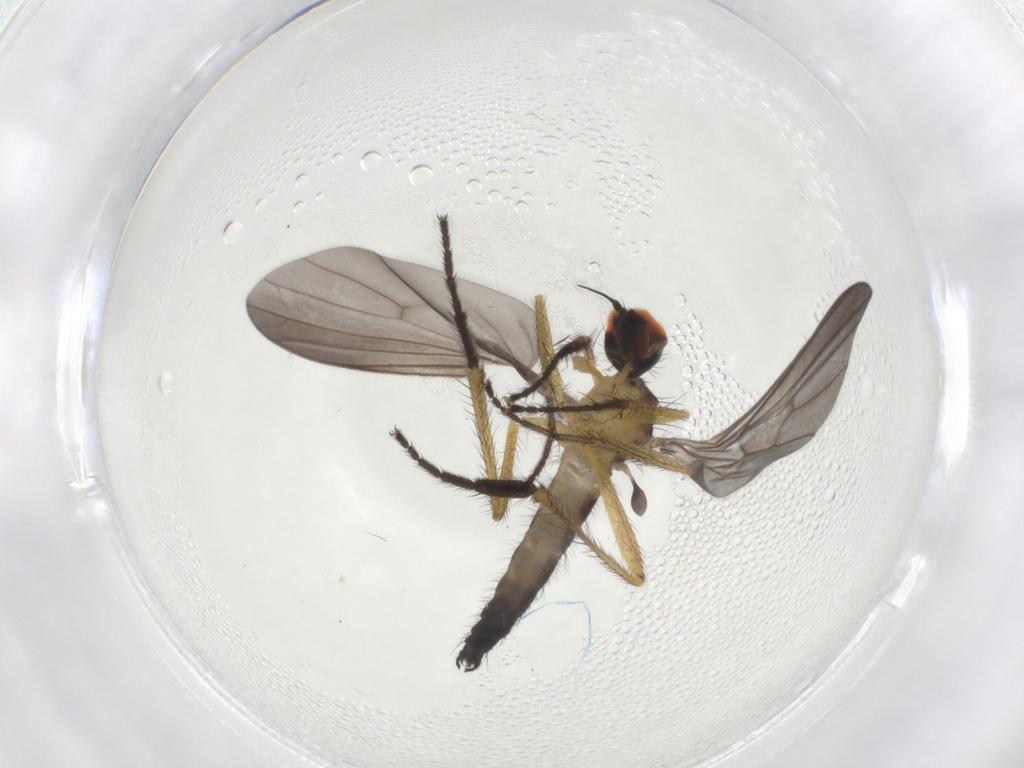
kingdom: Animalia
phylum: Arthropoda
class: Insecta
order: Diptera
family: Empididae
